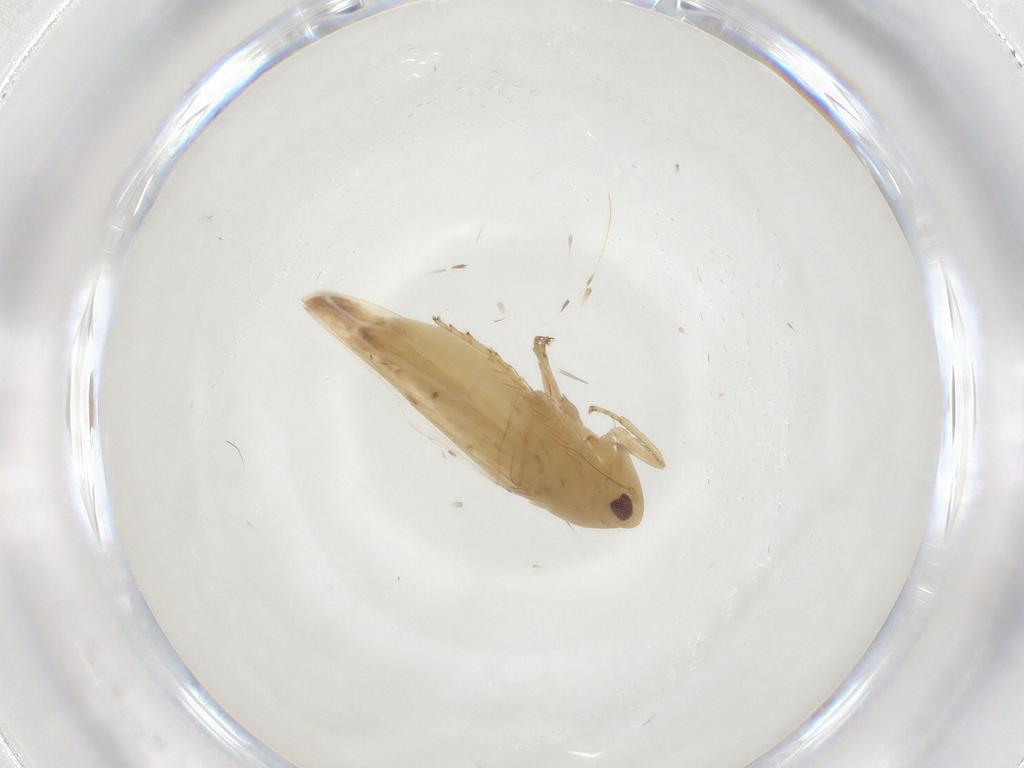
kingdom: Animalia
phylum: Arthropoda
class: Insecta
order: Hemiptera
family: Cicadellidae
